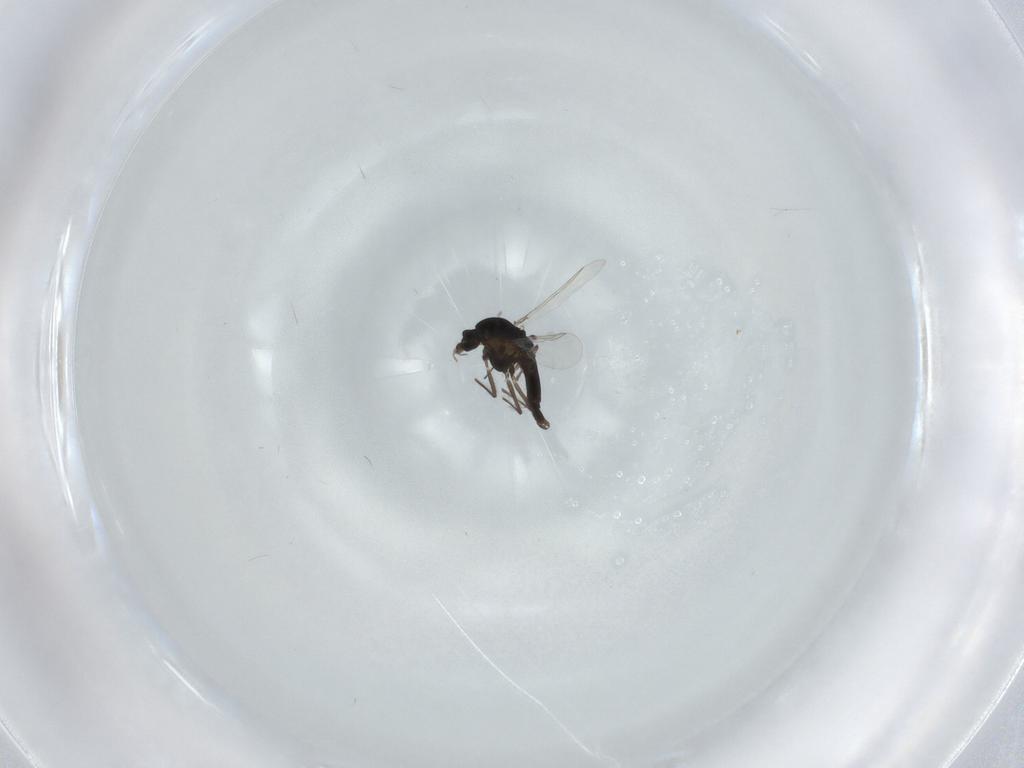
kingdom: Animalia
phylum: Arthropoda
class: Insecta
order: Diptera
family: Chironomidae
